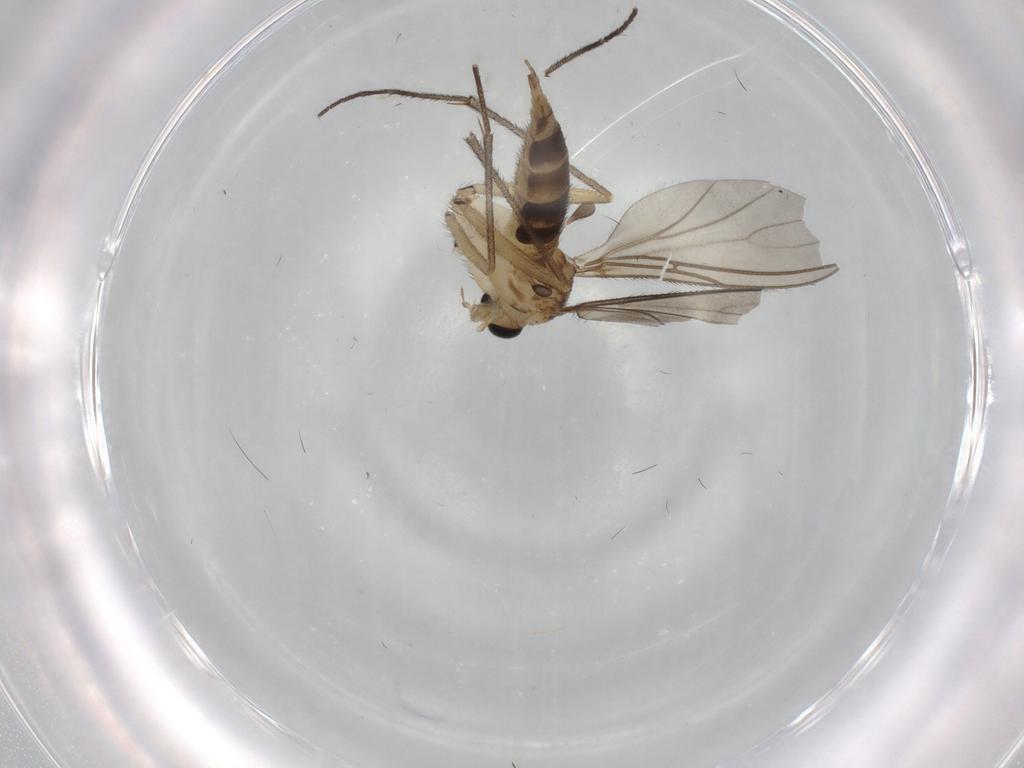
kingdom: Animalia
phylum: Arthropoda
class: Insecta
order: Diptera
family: Sciaridae
